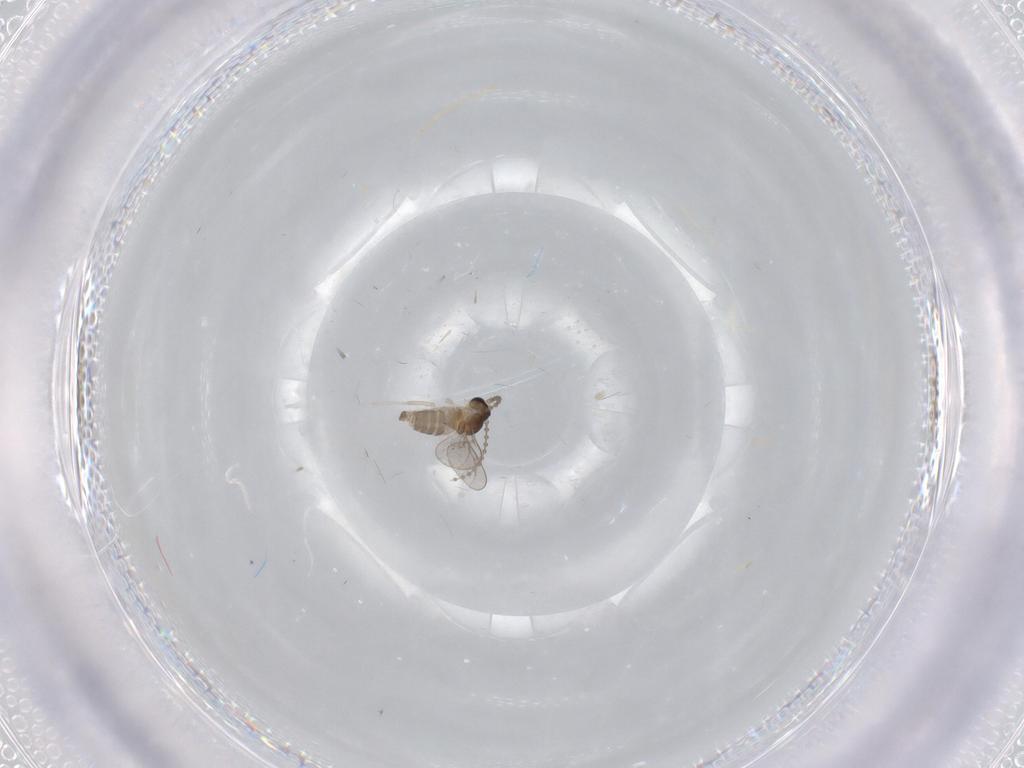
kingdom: Animalia
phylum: Arthropoda
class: Insecta
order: Diptera
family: Cecidomyiidae
